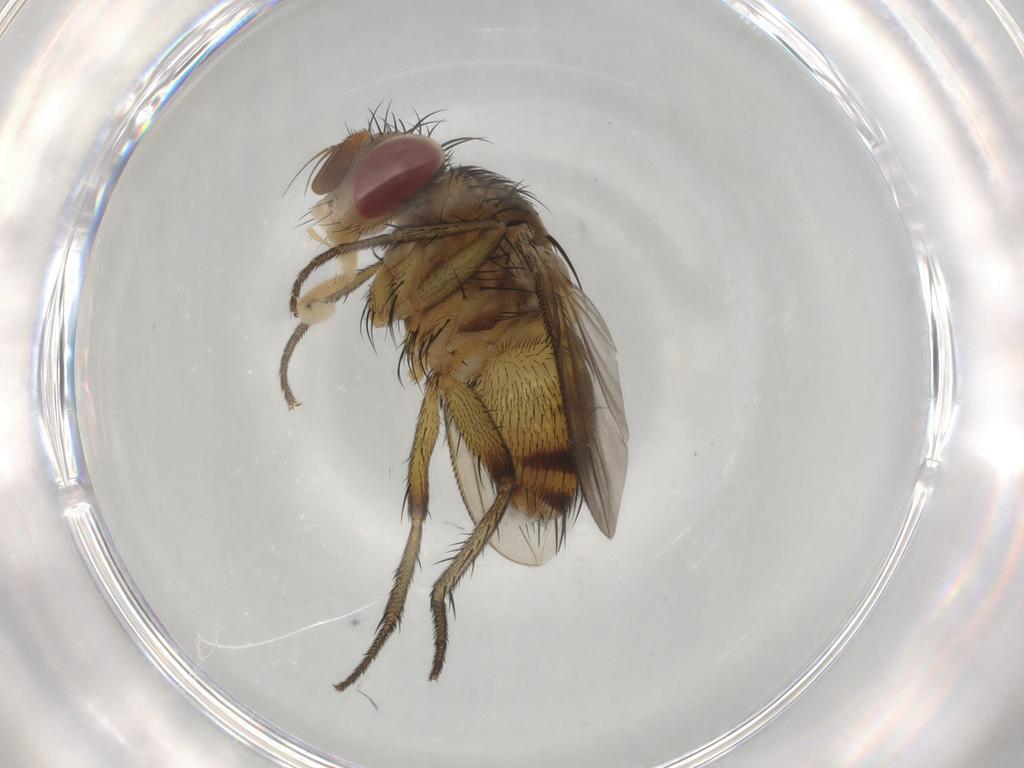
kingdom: Animalia
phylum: Arthropoda
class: Insecta
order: Diptera
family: Tachinidae
